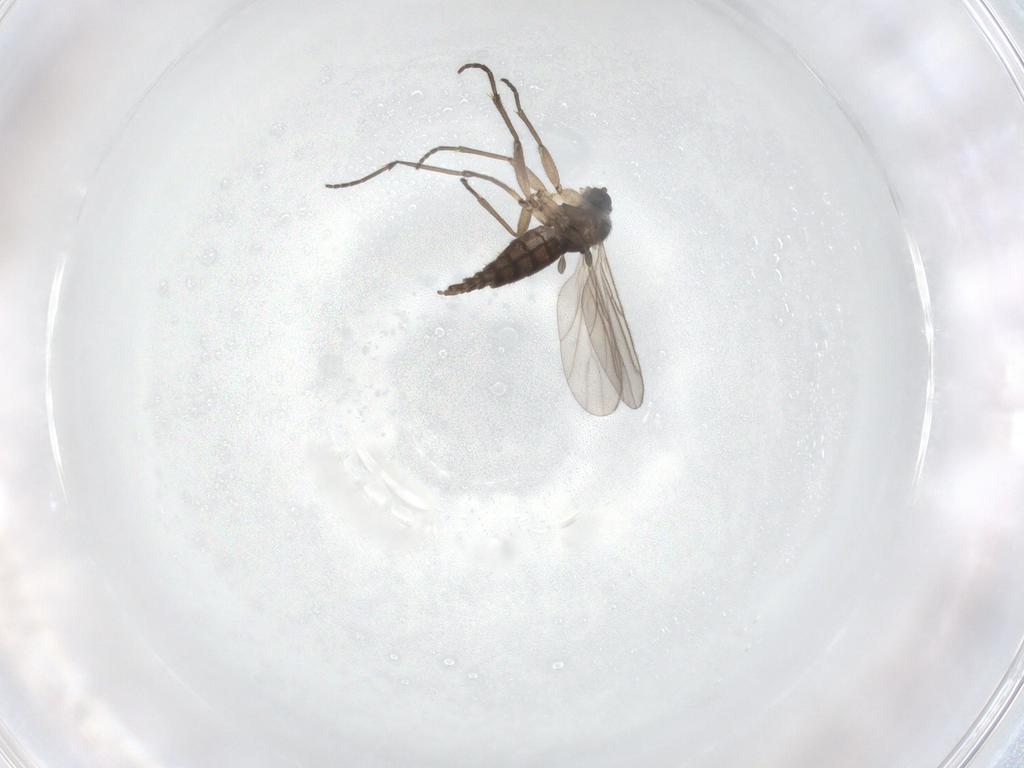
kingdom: Animalia
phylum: Arthropoda
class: Insecta
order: Diptera
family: Sciaridae
